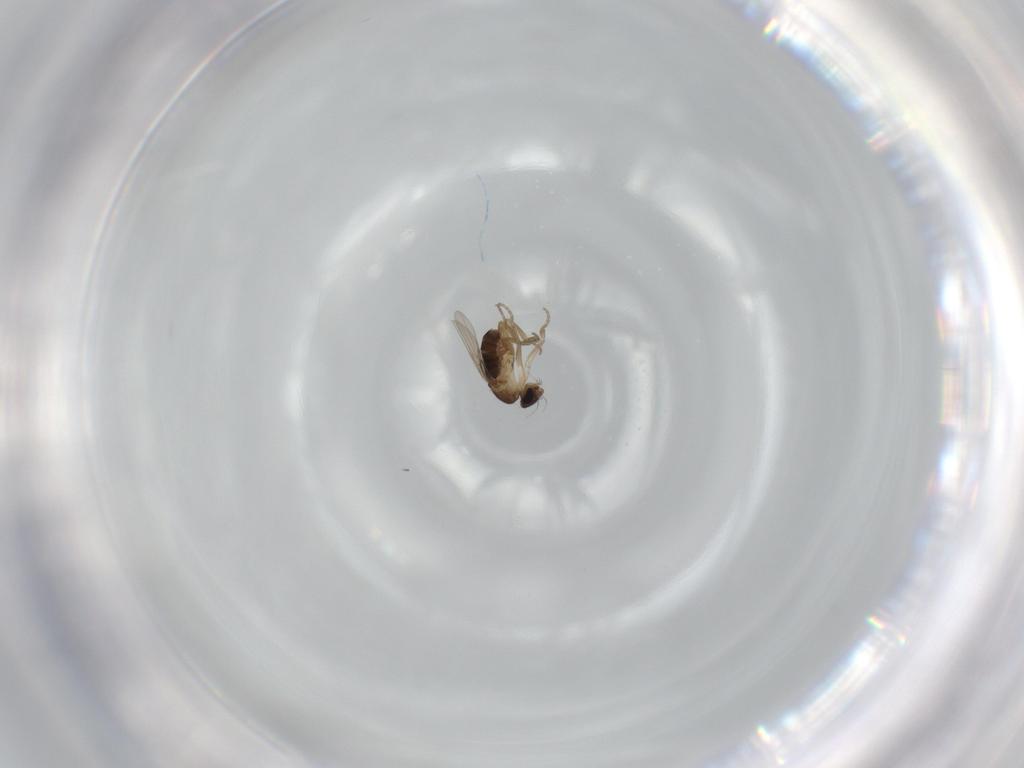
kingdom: Animalia
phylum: Arthropoda
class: Insecta
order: Diptera
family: Phoridae
